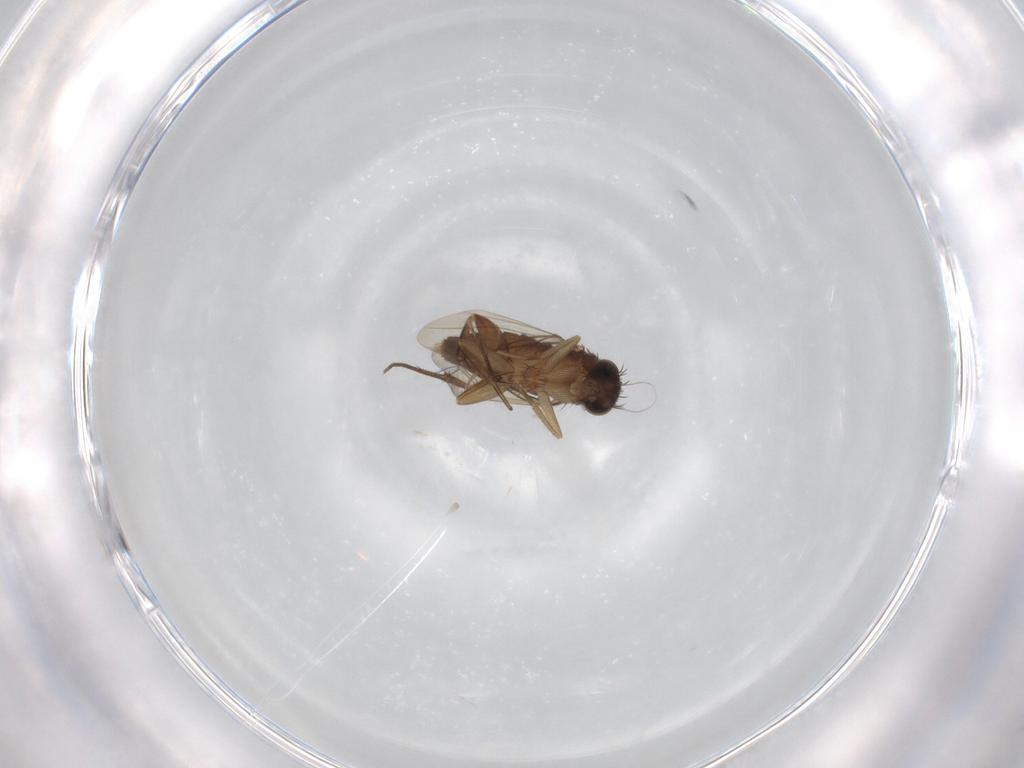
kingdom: Animalia
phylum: Arthropoda
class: Insecta
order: Diptera
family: Phoridae
